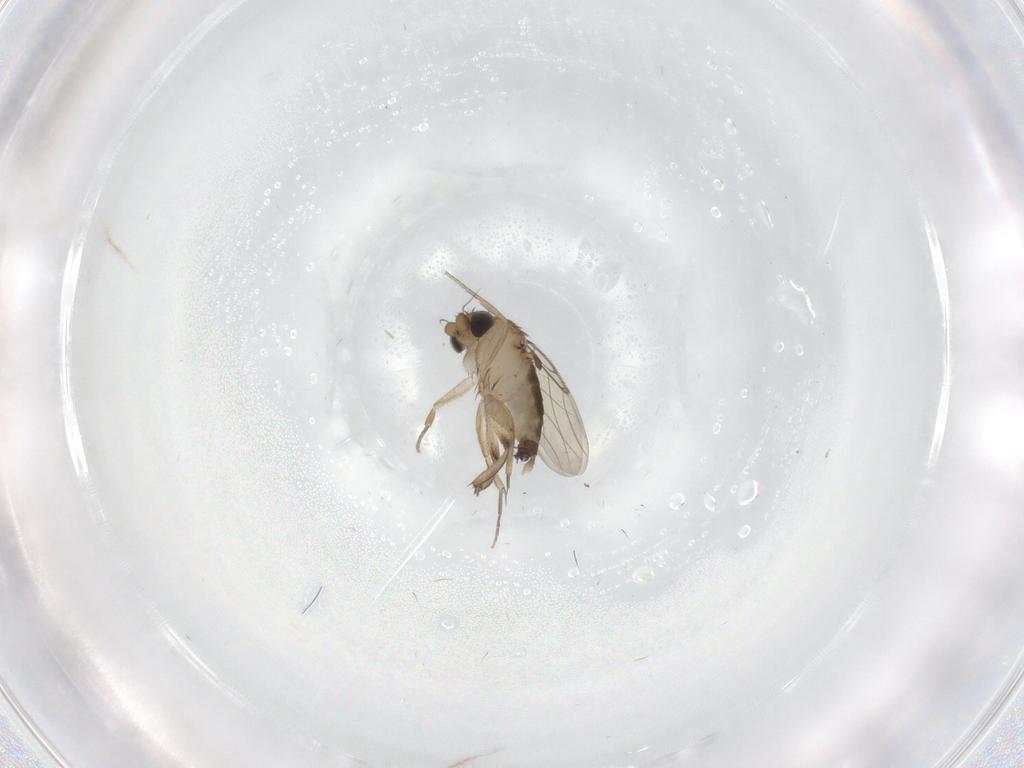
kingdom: Animalia
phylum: Arthropoda
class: Insecta
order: Diptera
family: Phoridae
